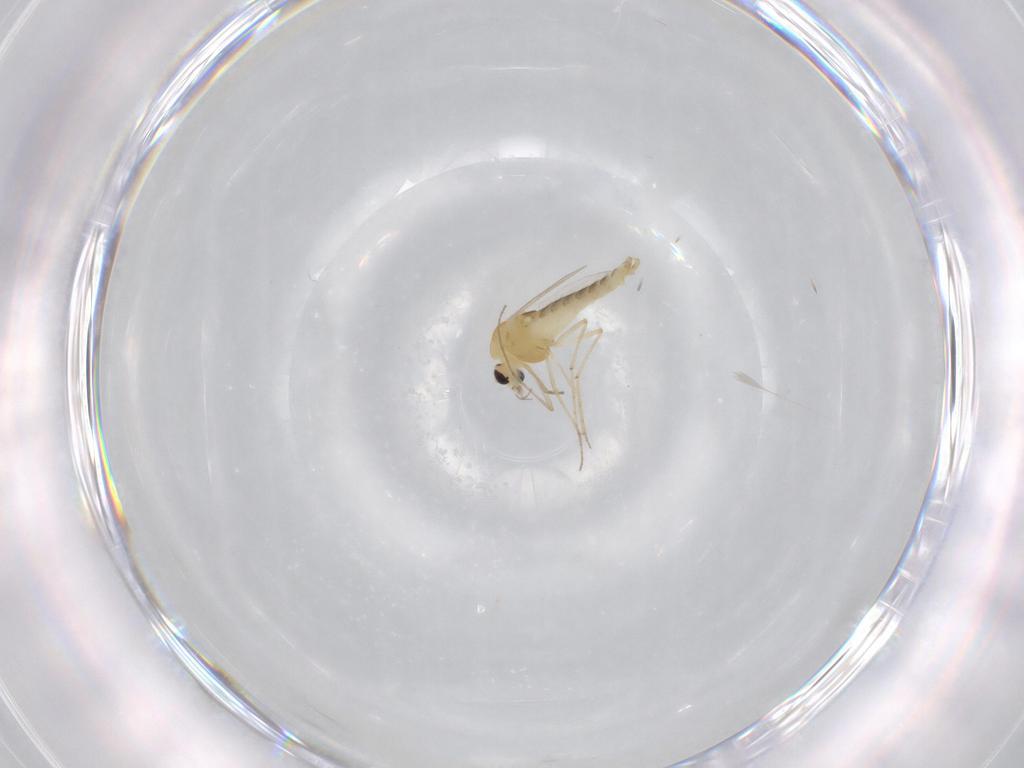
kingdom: Animalia
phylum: Arthropoda
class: Insecta
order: Diptera
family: Chironomidae
